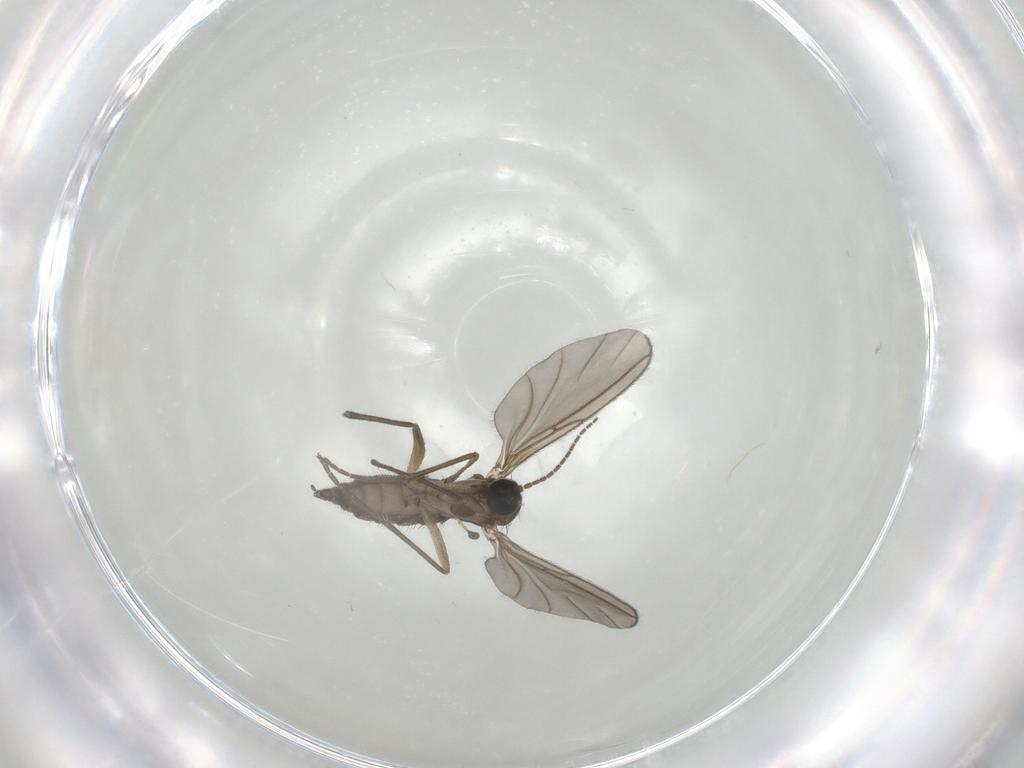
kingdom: Animalia
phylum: Arthropoda
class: Insecta
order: Diptera
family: Sciaridae
